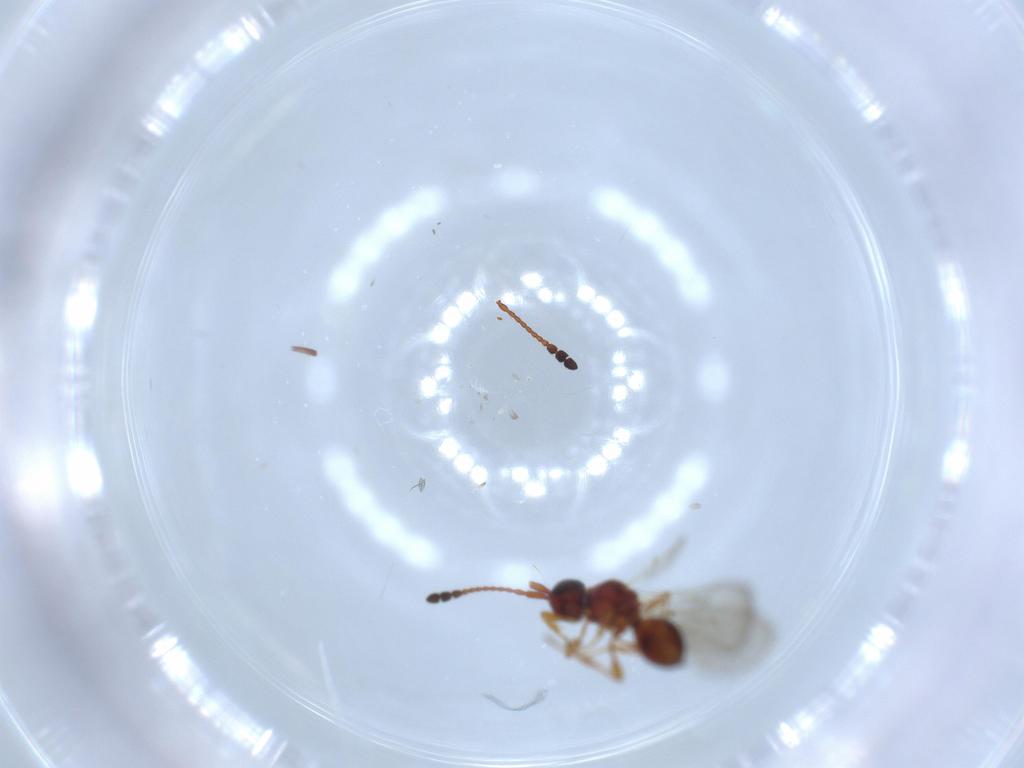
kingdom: Animalia
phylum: Arthropoda
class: Insecta
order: Hymenoptera
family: Diapriidae
